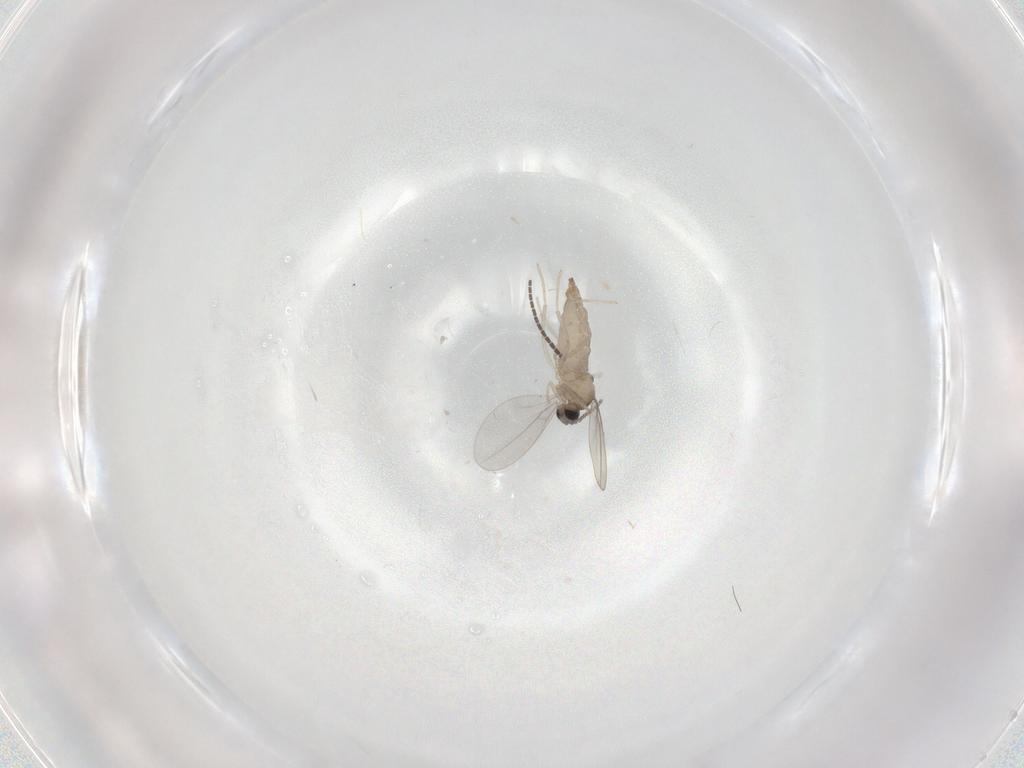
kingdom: Animalia
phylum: Arthropoda
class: Insecta
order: Diptera
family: Cecidomyiidae
